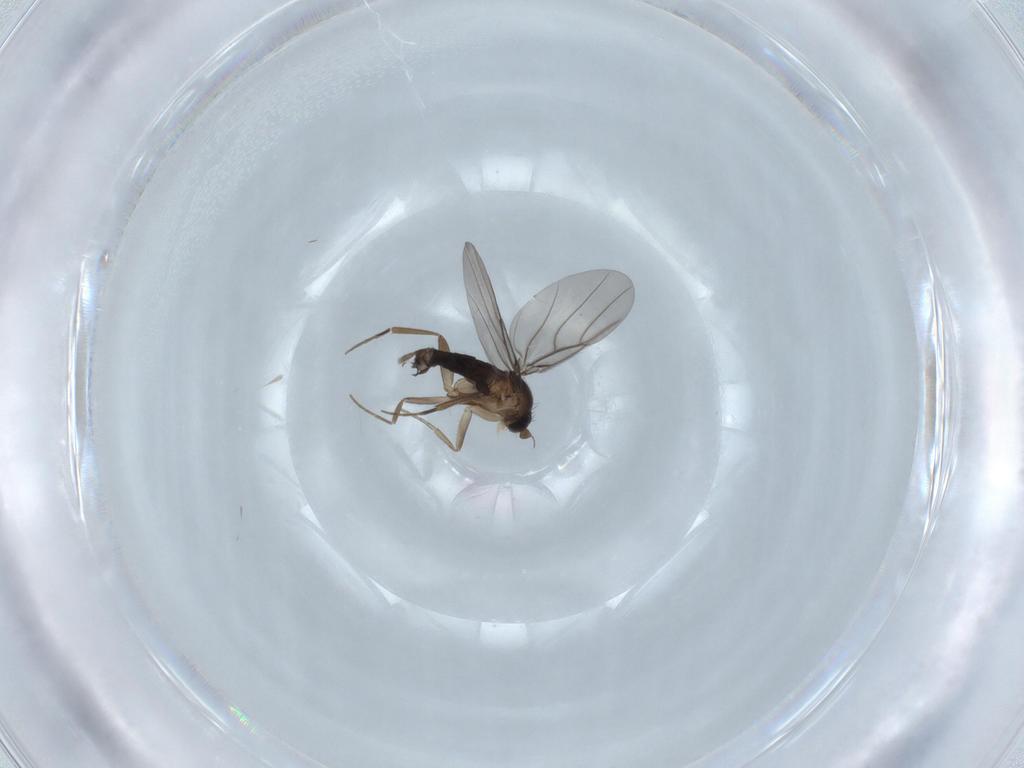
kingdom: Animalia
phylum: Arthropoda
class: Insecta
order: Diptera
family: Phoridae
